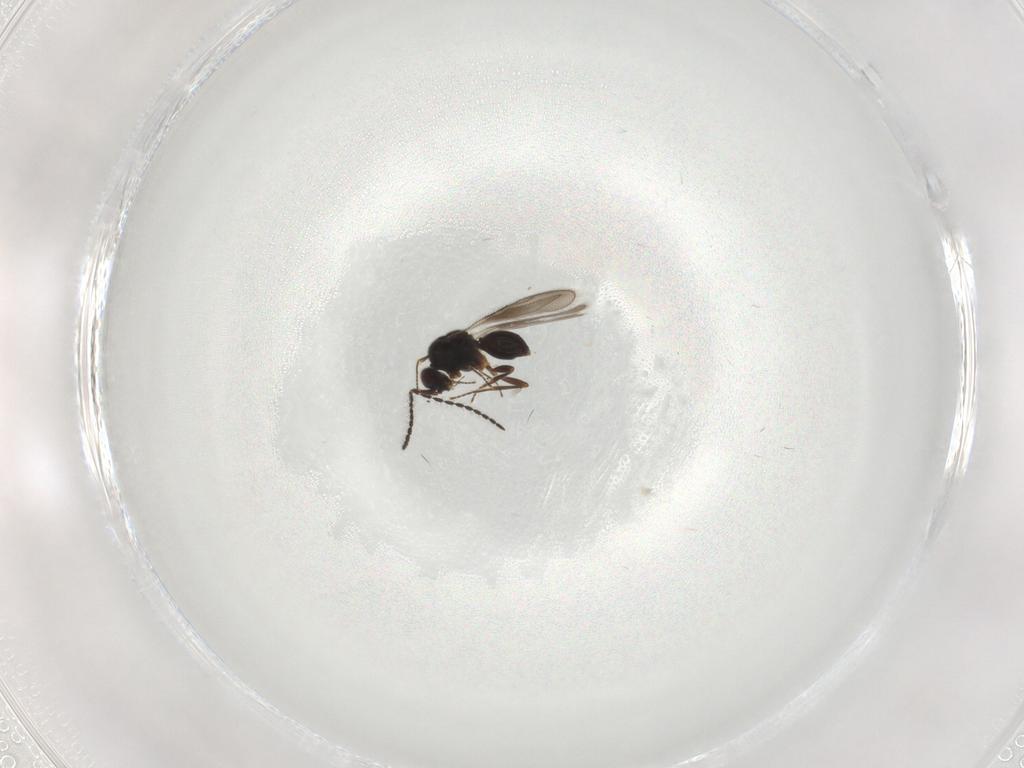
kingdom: Animalia
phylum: Arthropoda
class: Insecta
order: Hymenoptera
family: Ceraphronidae
